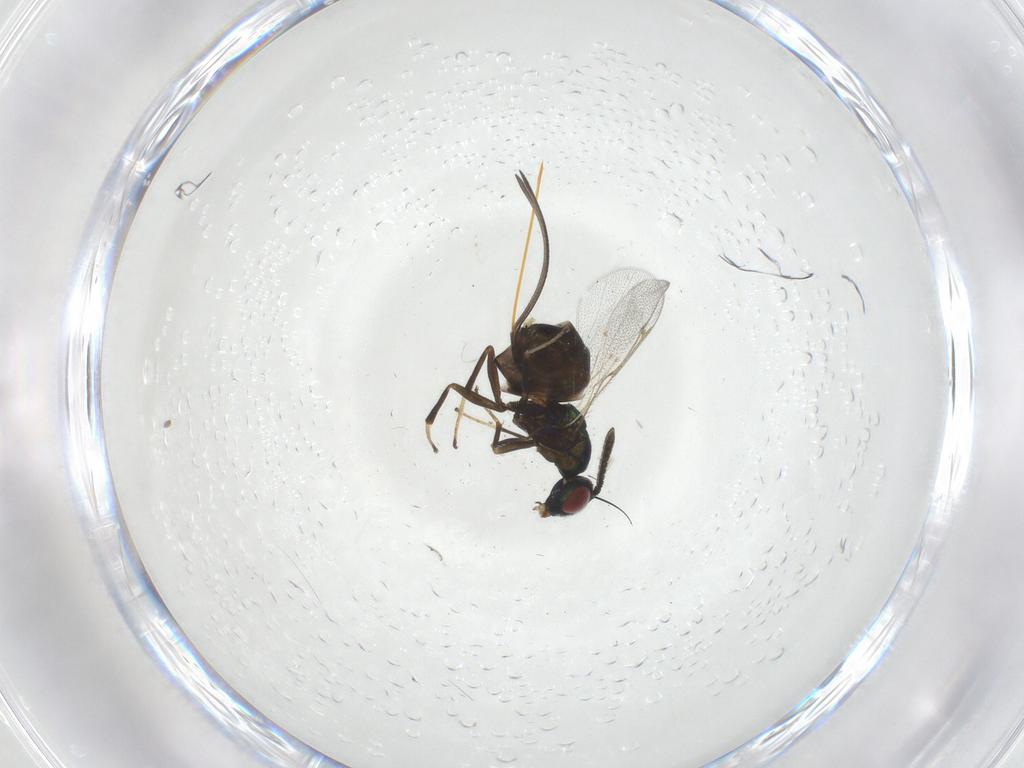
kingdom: Animalia
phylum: Arthropoda
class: Insecta
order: Hymenoptera
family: Torymidae
